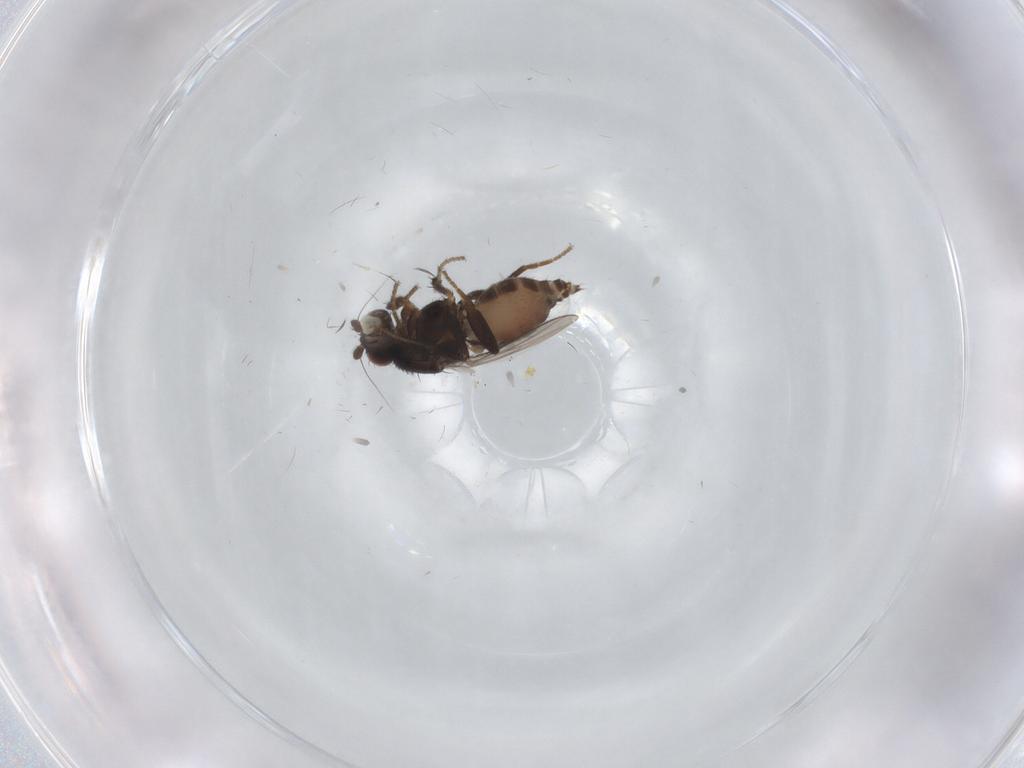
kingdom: Animalia
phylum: Arthropoda
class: Insecta
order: Diptera
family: Sphaeroceridae
